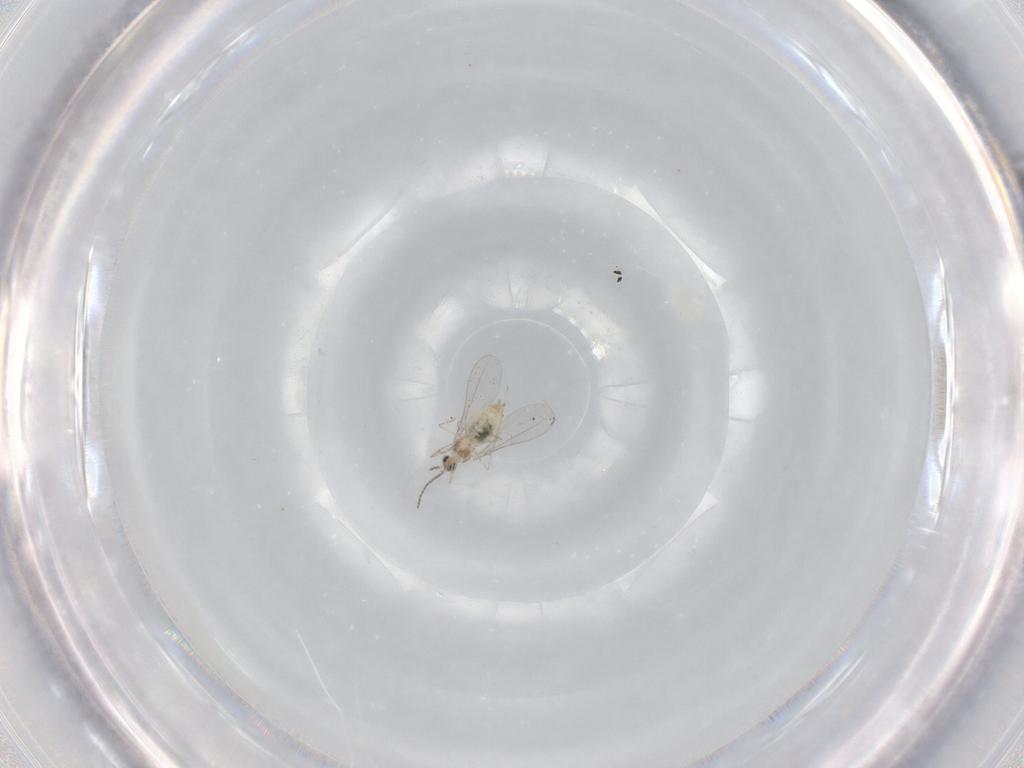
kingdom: Animalia
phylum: Arthropoda
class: Insecta
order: Diptera
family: Cecidomyiidae
